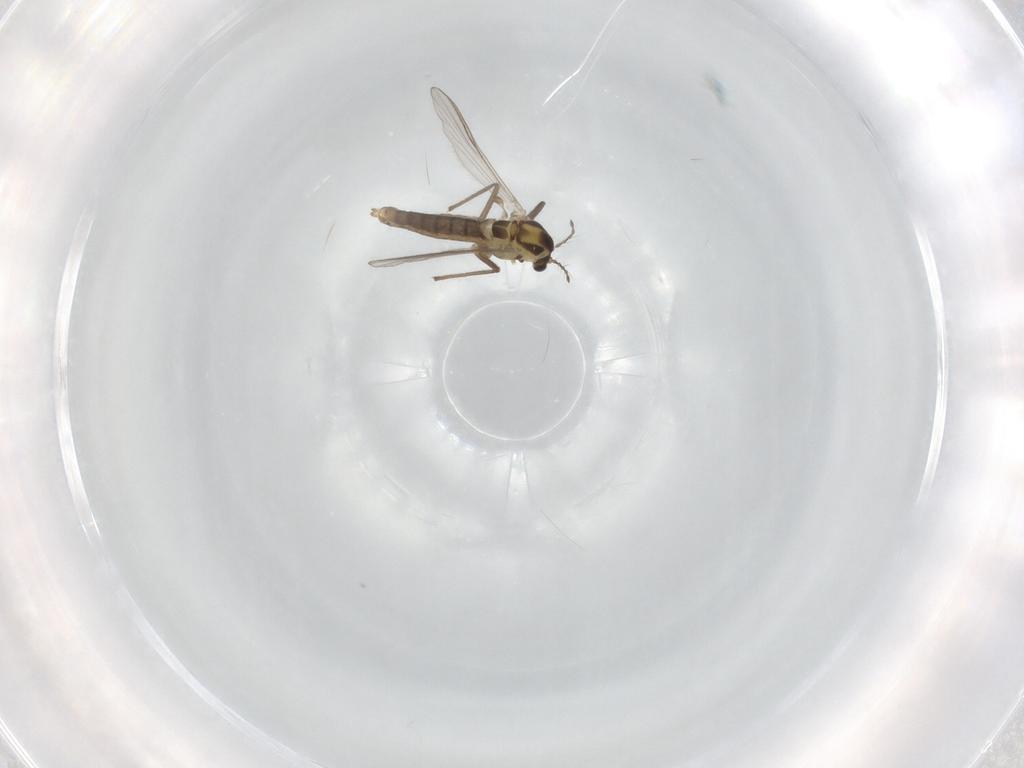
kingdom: Animalia
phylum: Arthropoda
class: Insecta
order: Diptera
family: Chironomidae
